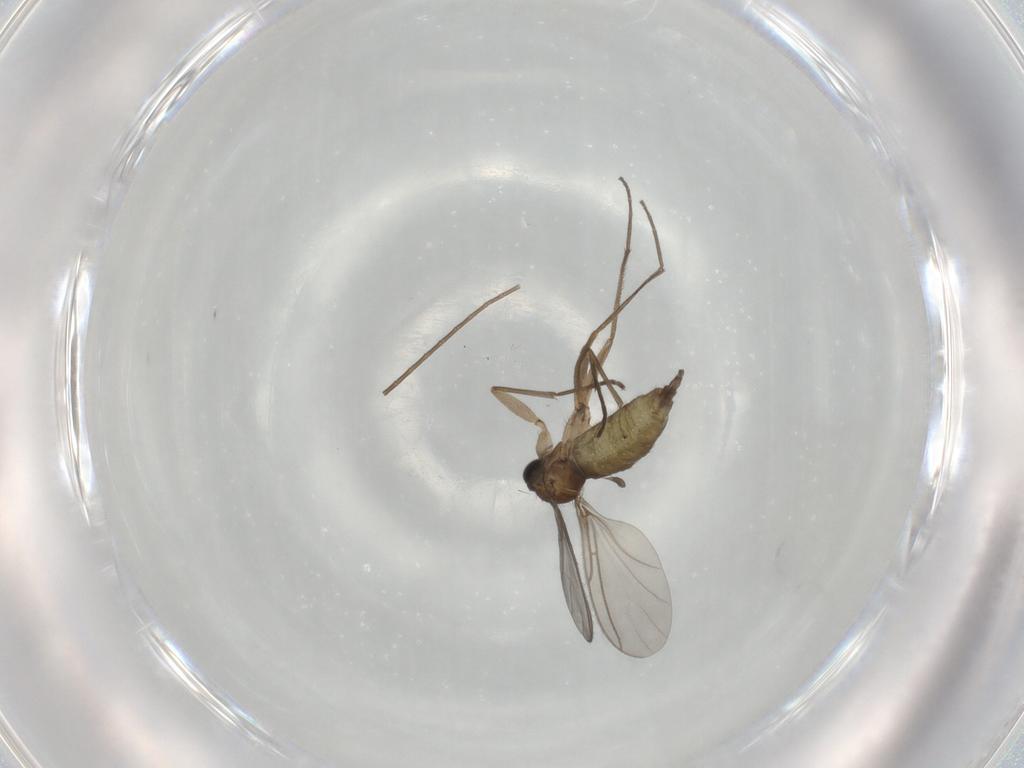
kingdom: Animalia
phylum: Arthropoda
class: Insecta
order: Diptera
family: Sciaridae
